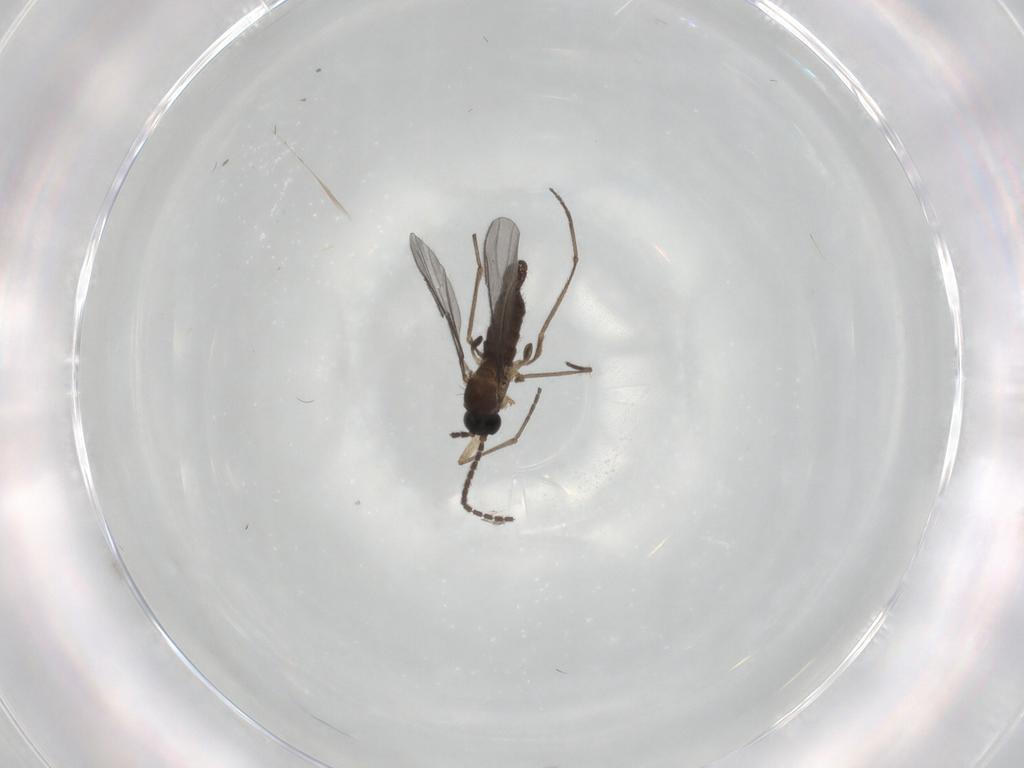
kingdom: Animalia
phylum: Arthropoda
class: Insecta
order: Diptera
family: Sciaridae
